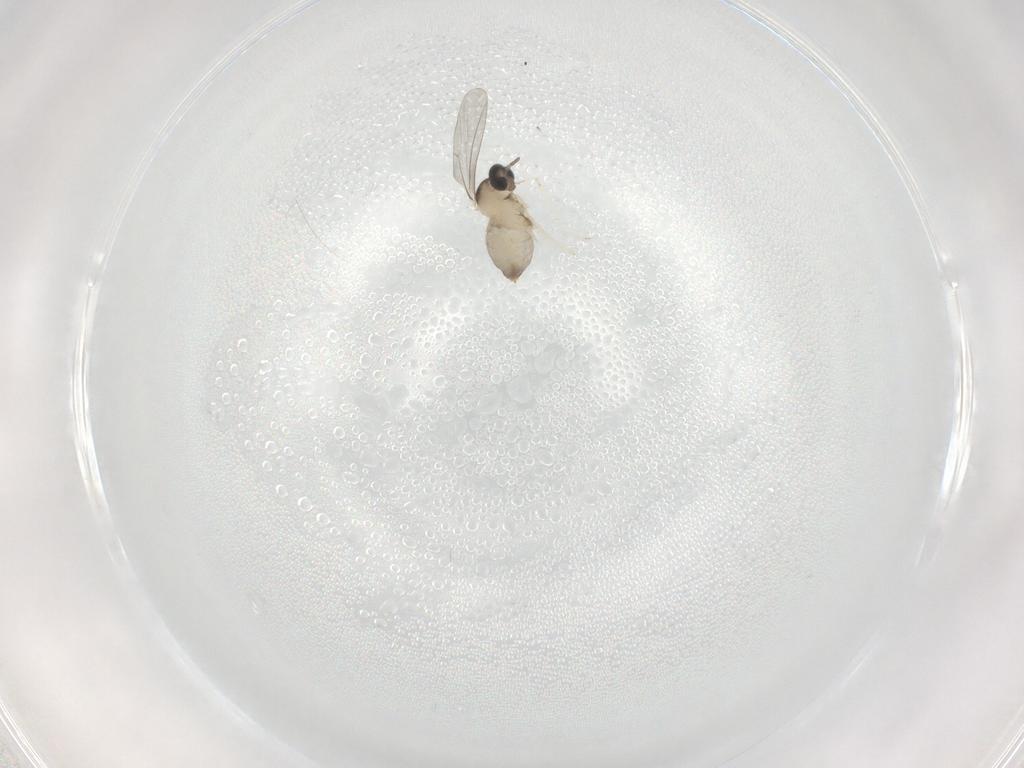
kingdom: Animalia
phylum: Arthropoda
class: Insecta
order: Diptera
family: Cecidomyiidae
